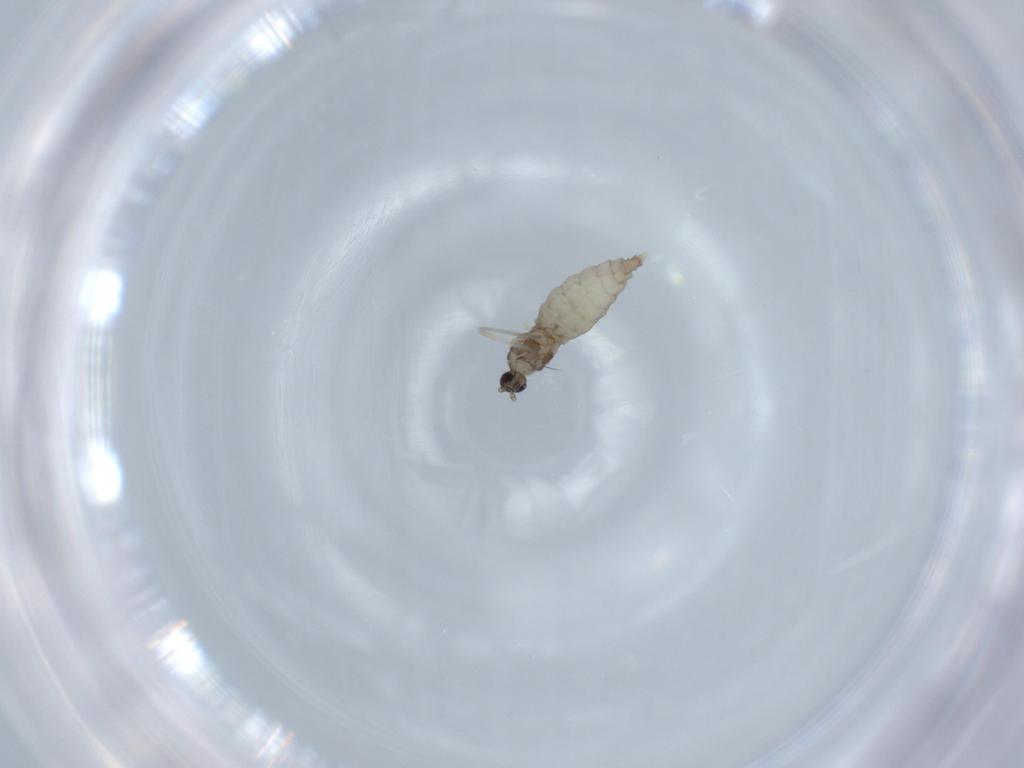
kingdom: Animalia
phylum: Arthropoda
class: Insecta
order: Diptera
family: Cecidomyiidae
